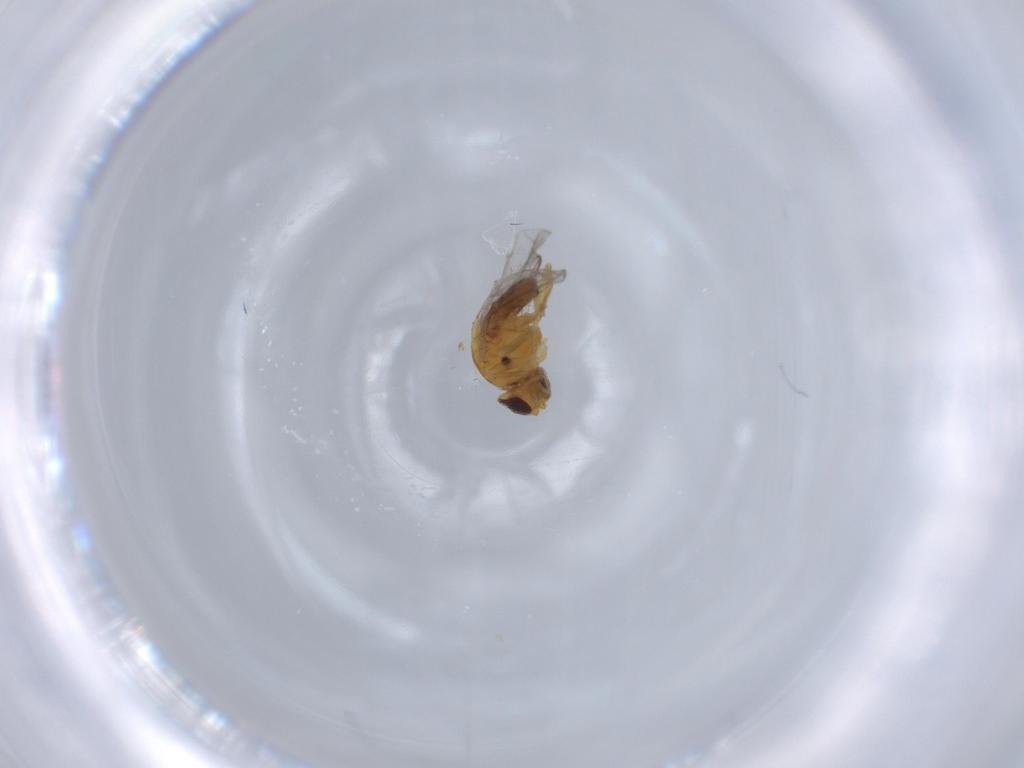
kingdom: Animalia
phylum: Arthropoda
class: Insecta
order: Diptera
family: Chloropidae
